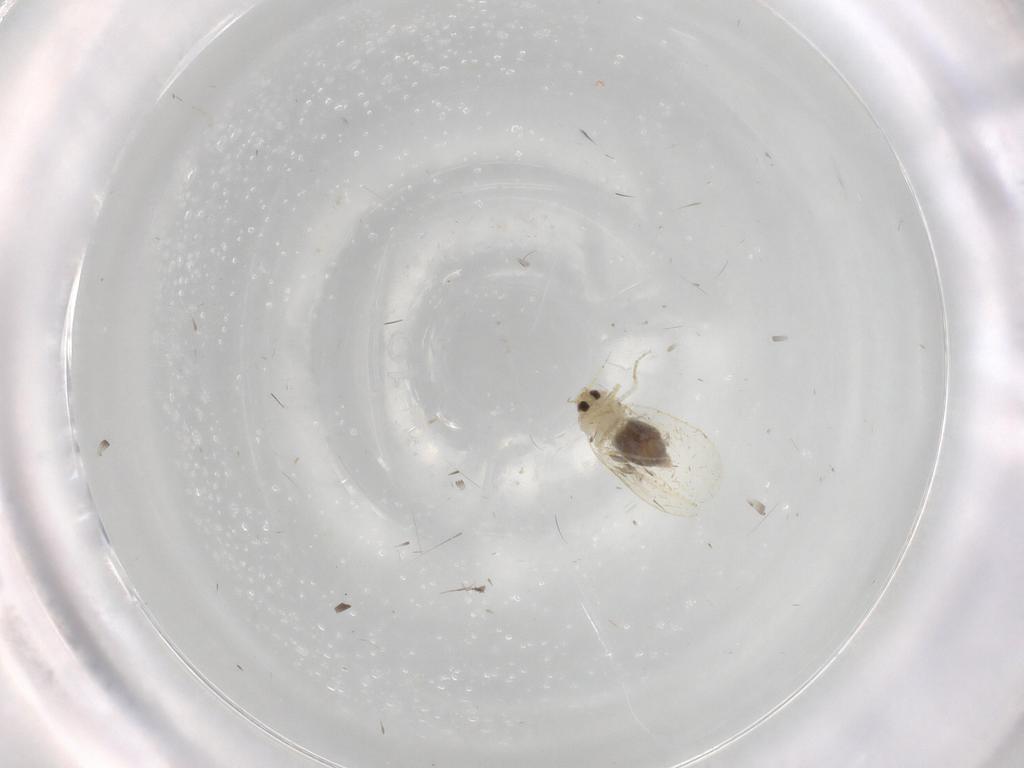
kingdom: Animalia
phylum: Arthropoda
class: Insecta
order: Hemiptera
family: Aleyrodidae
